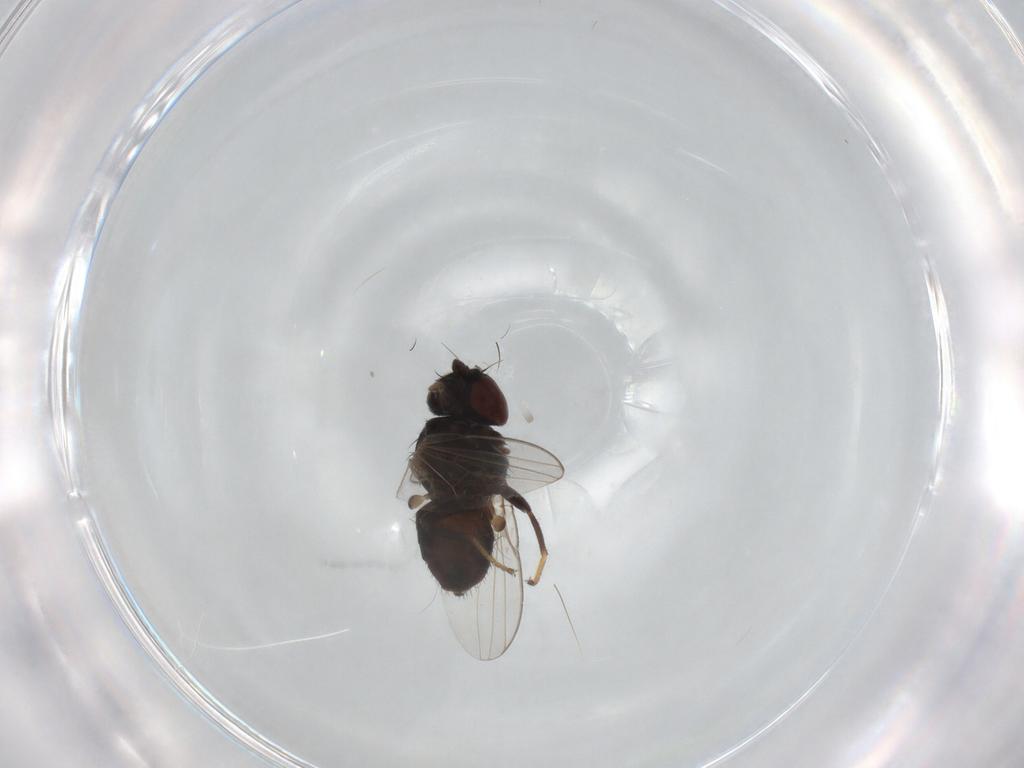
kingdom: Animalia
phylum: Arthropoda
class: Insecta
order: Diptera
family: Milichiidae
